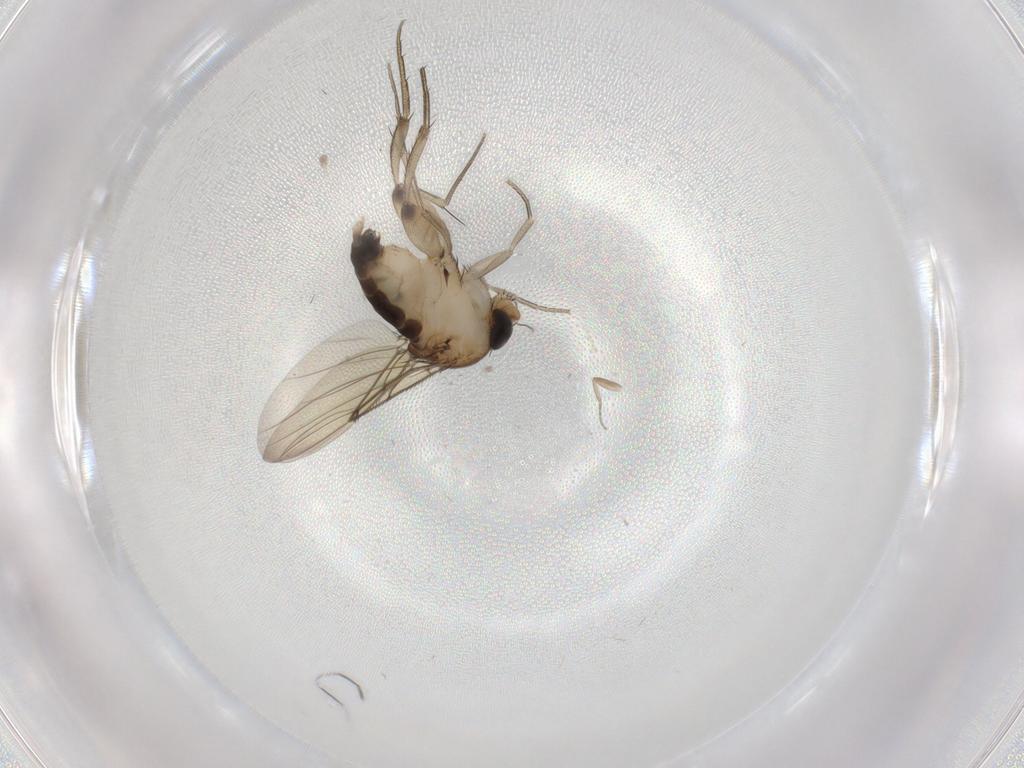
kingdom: Animalia
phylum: Arthropoda
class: Insecta
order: Diptera
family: Phoridae
